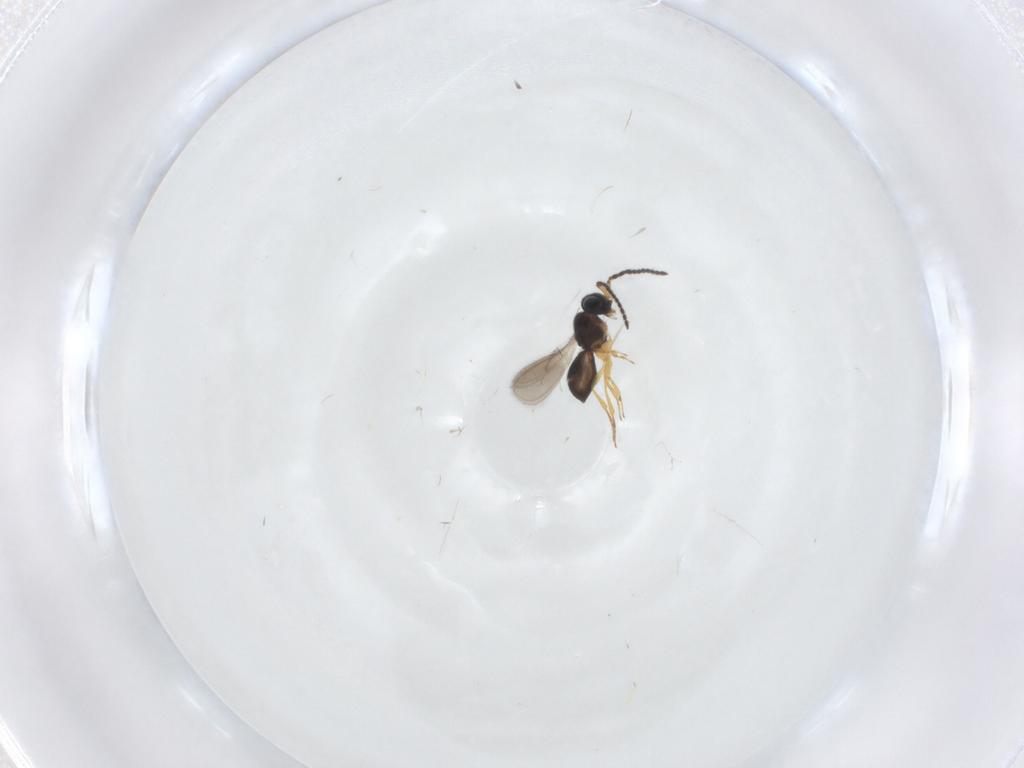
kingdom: Animalia
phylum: Arthropoda
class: Insecta
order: Hymenoptera
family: Scelionidae
